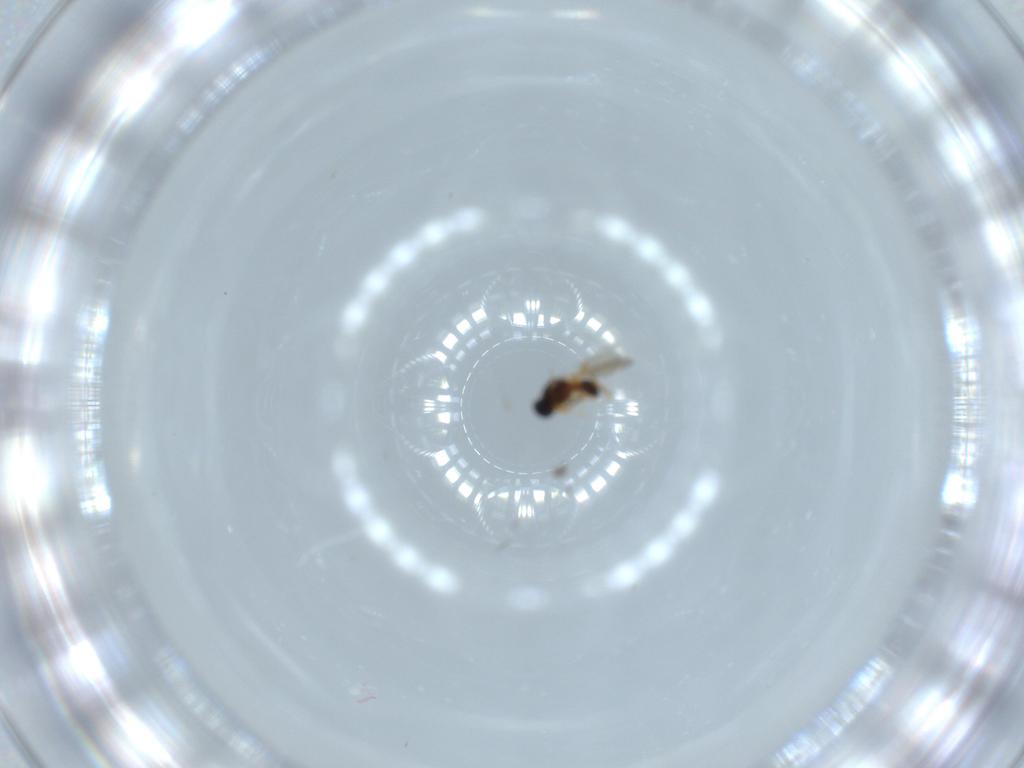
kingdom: Animalia
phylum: Arthropoda
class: Insecta
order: Hymenoptera
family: Platygastridae
